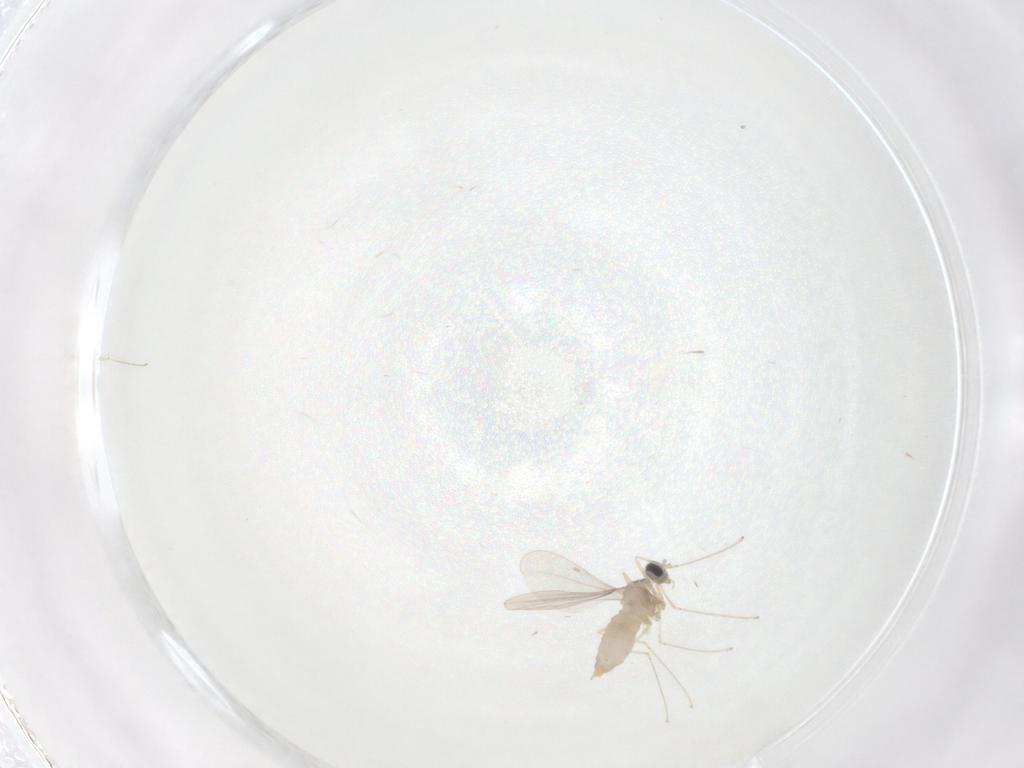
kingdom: Animalia
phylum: Arthropoda
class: Insecta
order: Diptera
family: Cecidomyiidae
